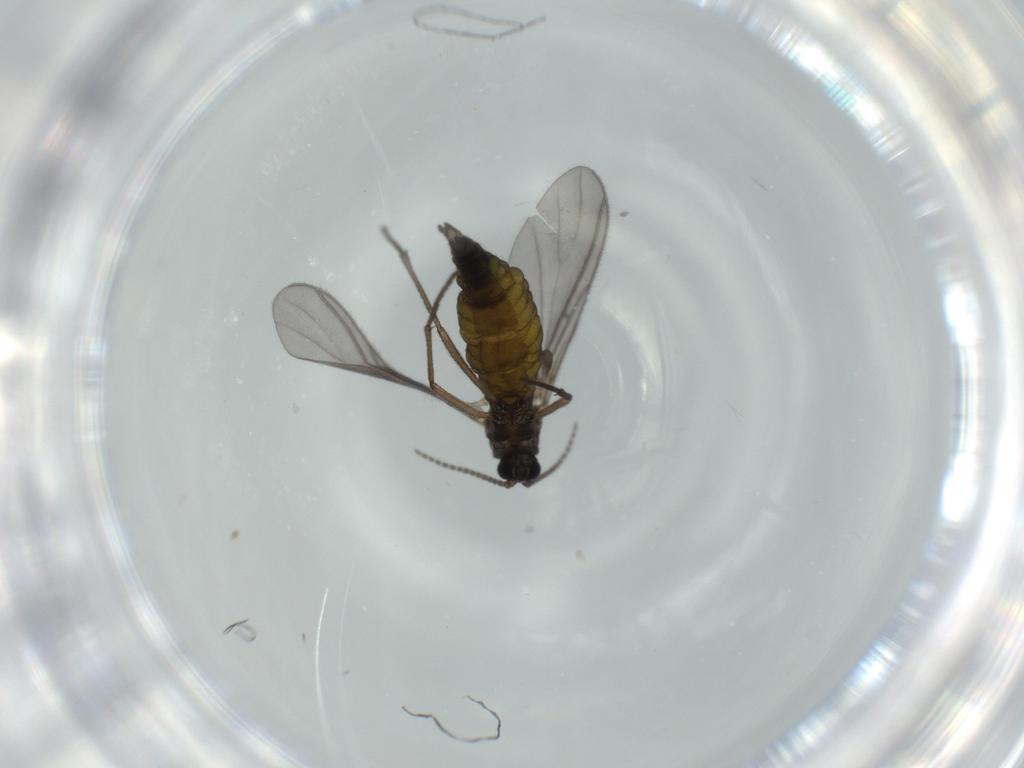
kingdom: Animalia
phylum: Arthropoda
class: Insecta
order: Diptera
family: Sciaridae
